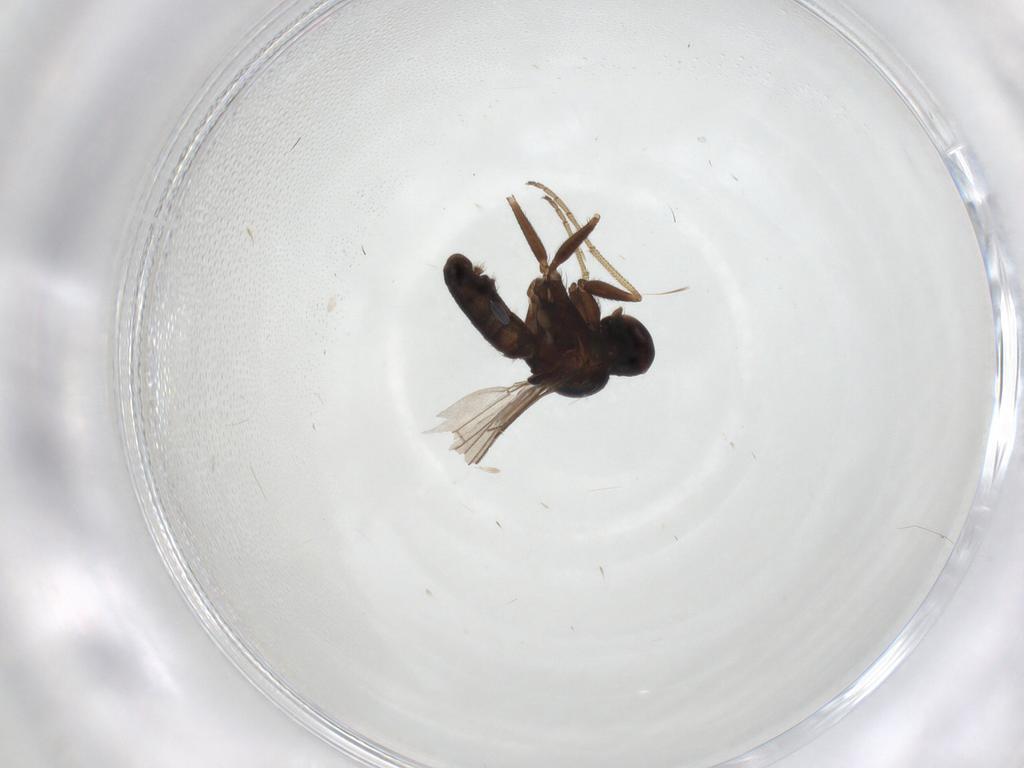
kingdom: Animalia
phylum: Arthropoda
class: Insecta
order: Diptera
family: Dolichopodidae
